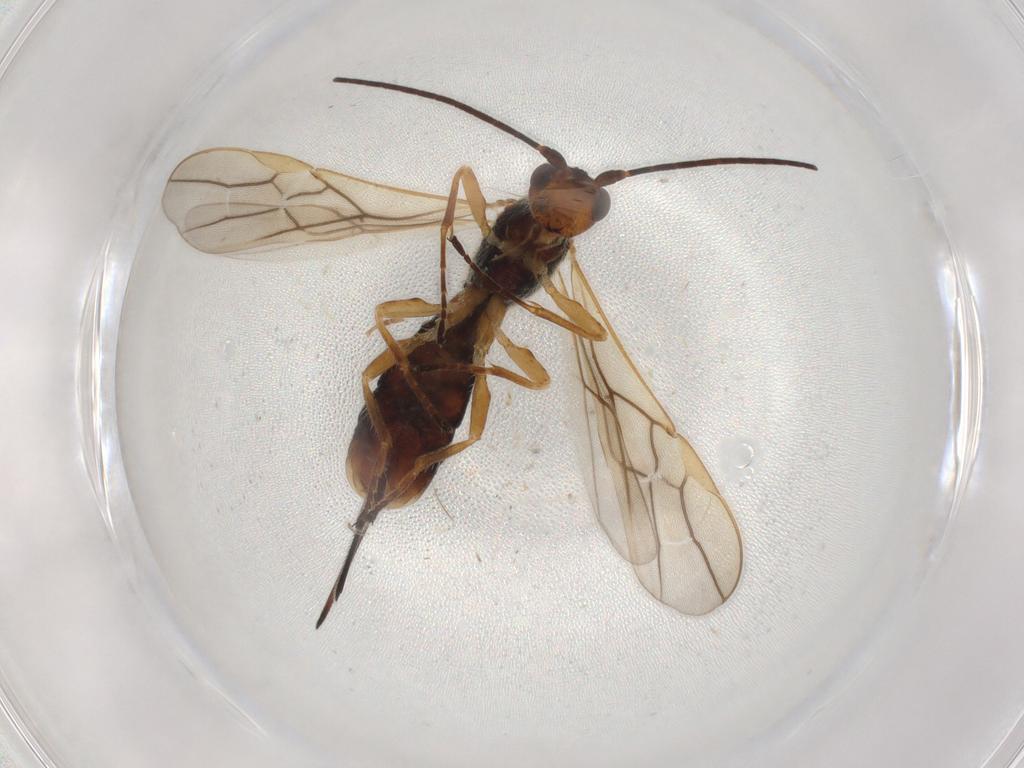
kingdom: Animalia
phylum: Arthropoda
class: Insecta
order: Hymenoptera
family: Braconidae
